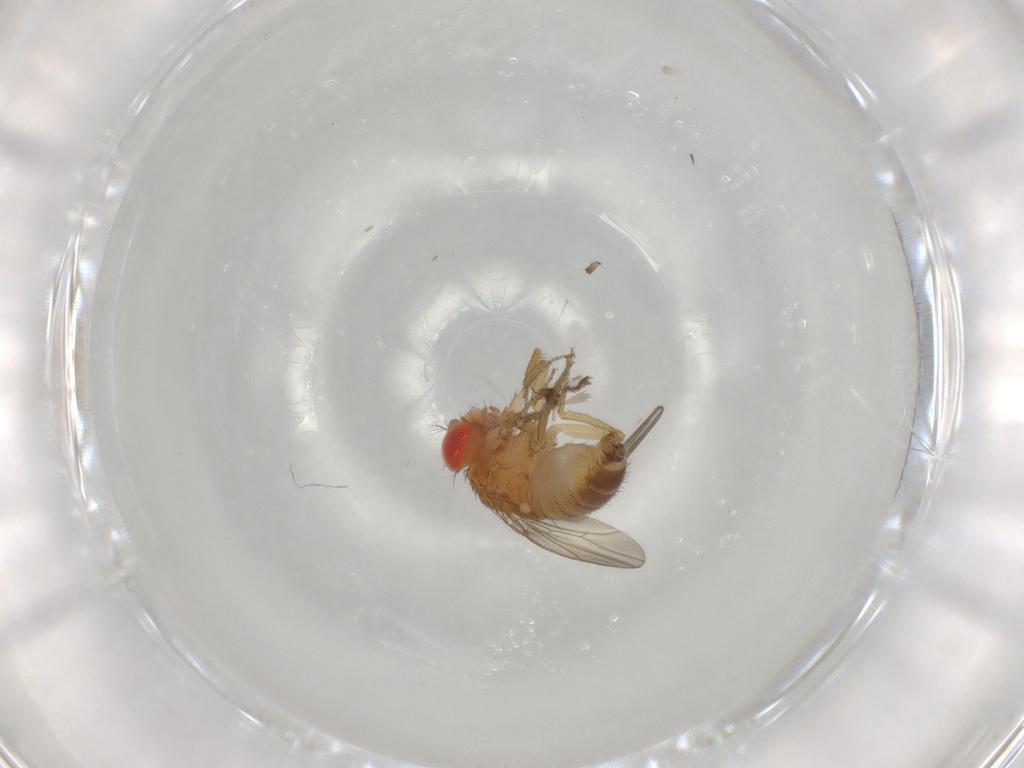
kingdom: Animalia
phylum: Arthropoda
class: Insecta
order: Diptera
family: Drosophilidae
